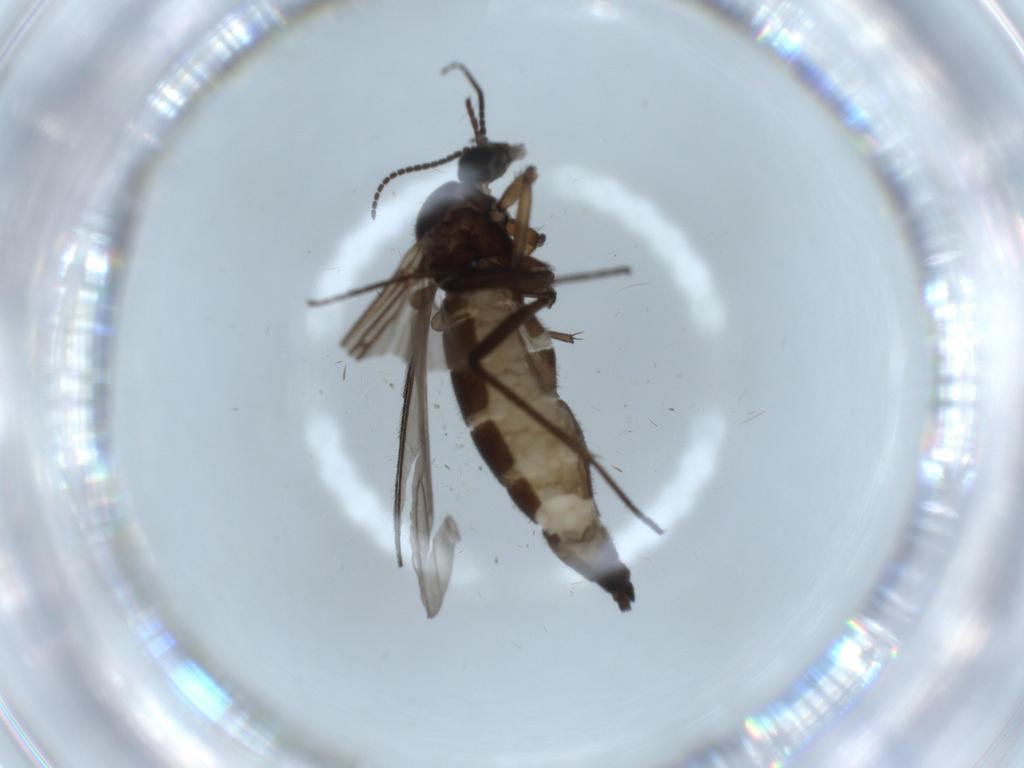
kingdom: Animalia
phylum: Arthropoda
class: Insecta
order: Diptera
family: Sciaridae
